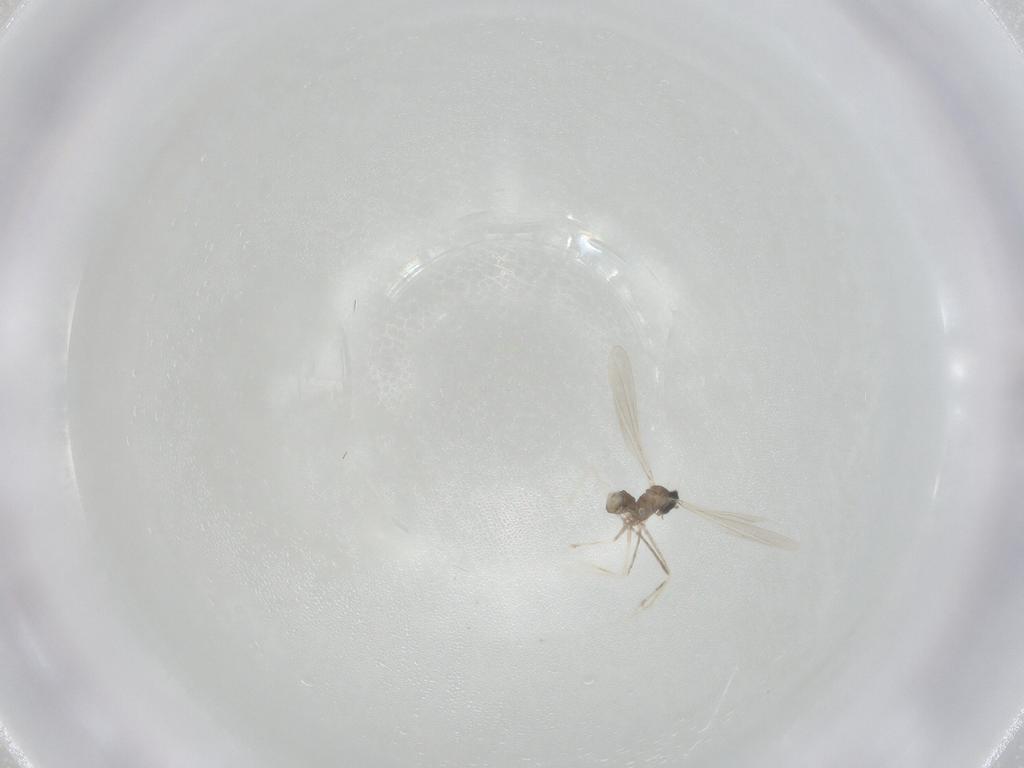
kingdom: Animalia
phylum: Arthropoda
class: Insecta
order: Diptera
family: Cecidomyiidae
